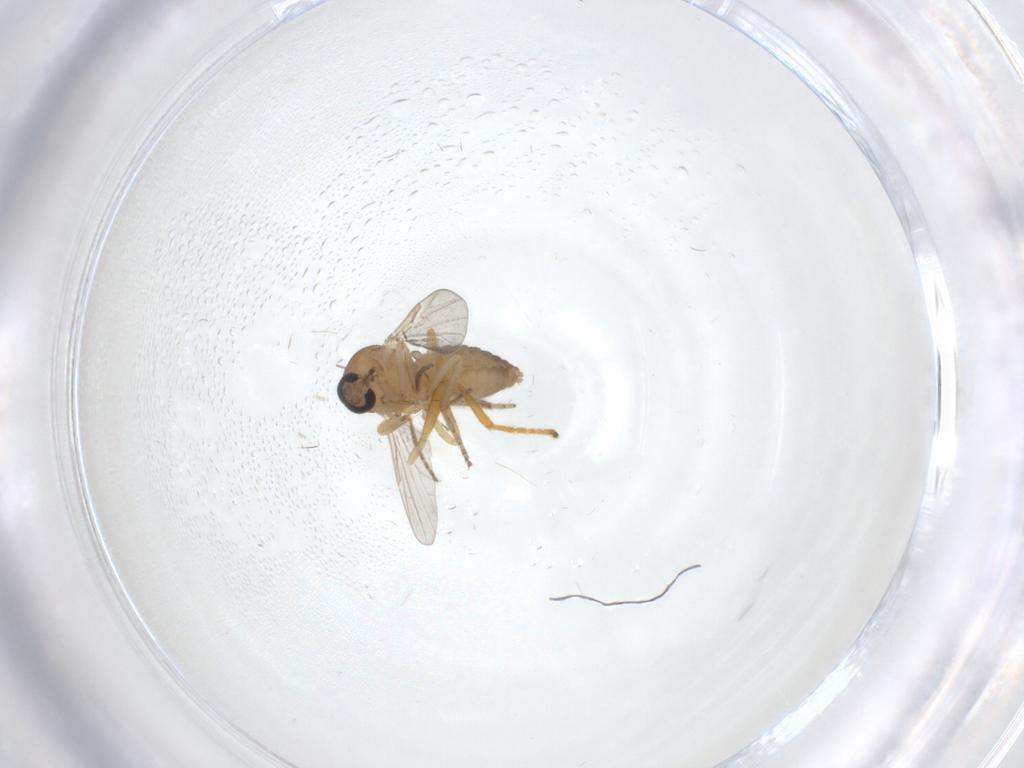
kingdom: Animalia
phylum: Arthropoda
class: Insecta
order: Diptera
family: Ceratopogonidae
